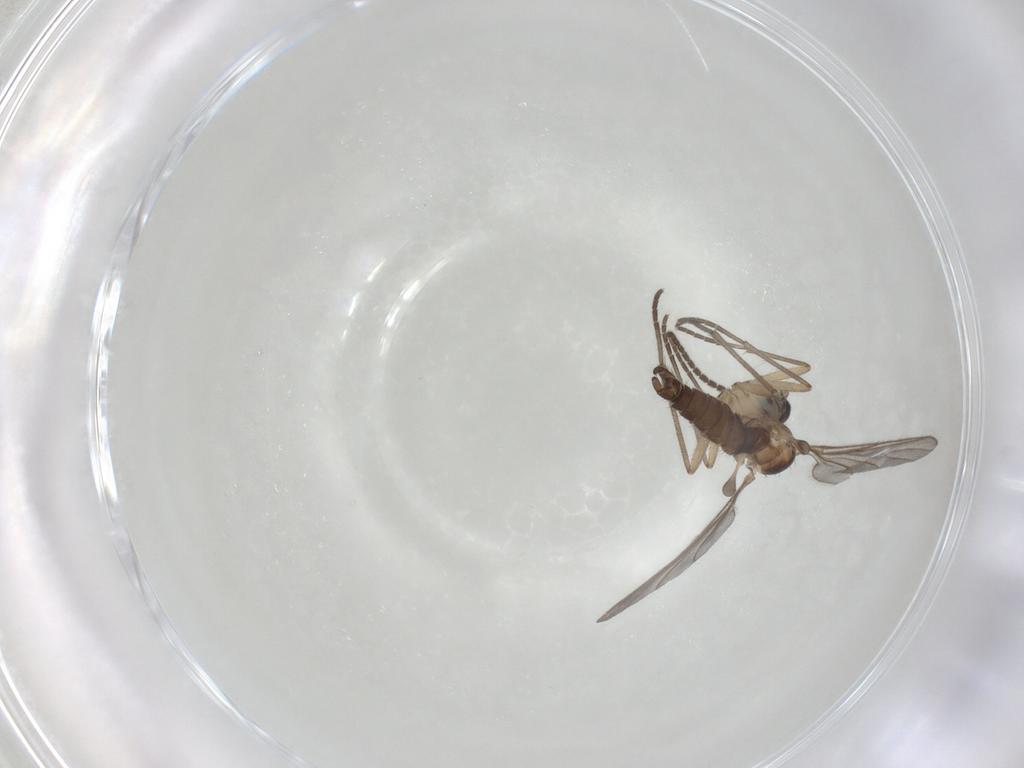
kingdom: Animalia
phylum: Arthropoda
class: Insecta
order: Diptera
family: Sciaridae
